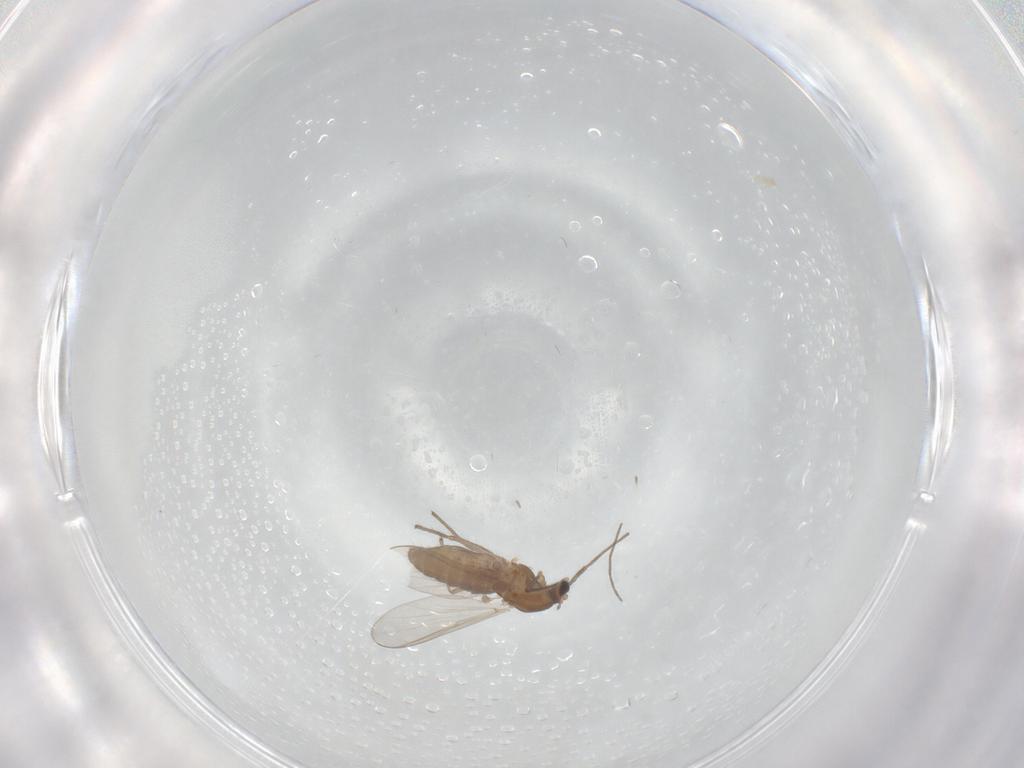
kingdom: Animalia
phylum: Arthropoda
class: Insecta
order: Diptera
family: Chironomidae
